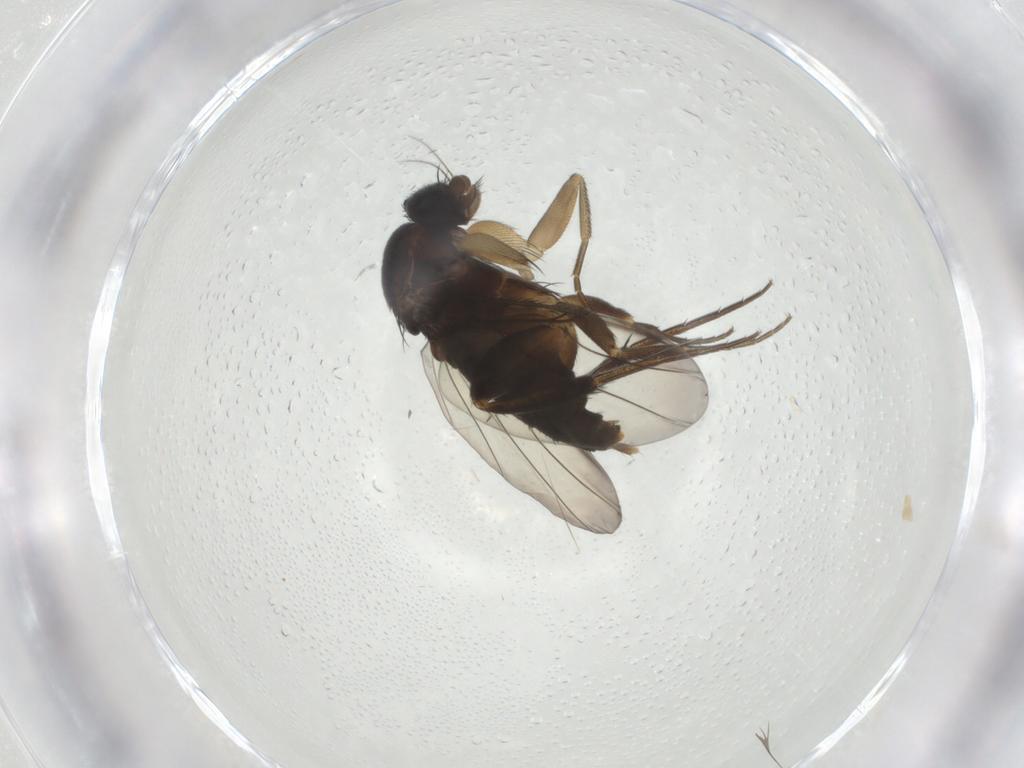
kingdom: Animalia
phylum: Arthropoda
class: Insecta
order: Diptera
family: Phoridae
